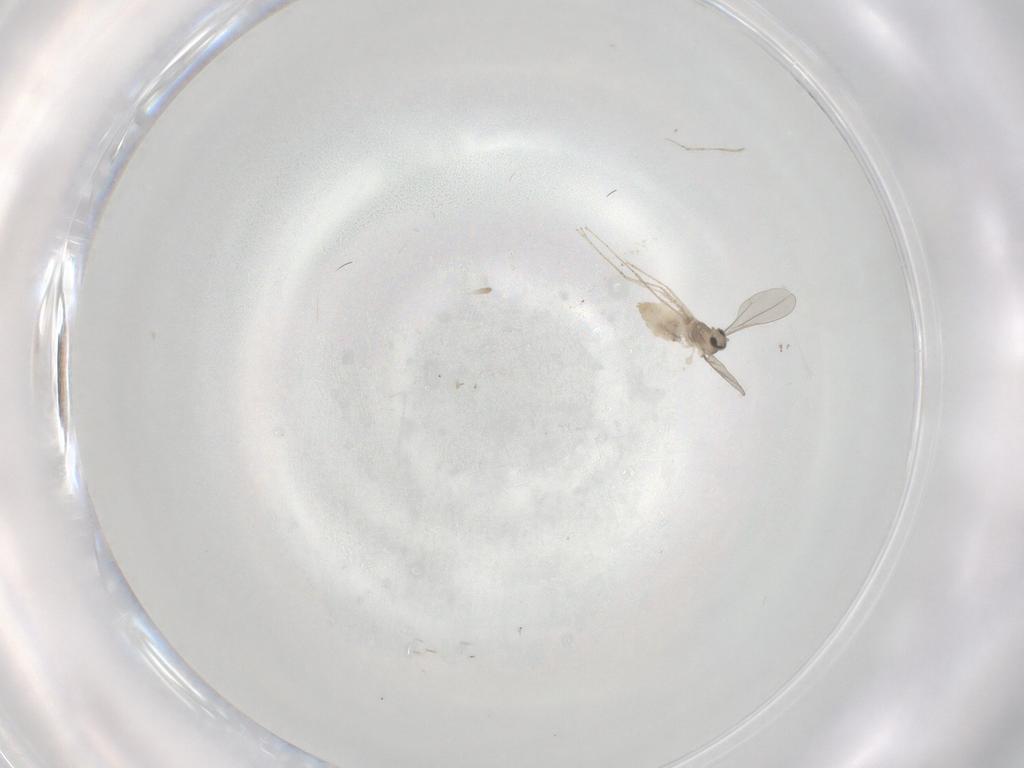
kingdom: Animalia
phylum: Arthropoda
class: Insecta
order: Diptera
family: Cecidomyiidae
